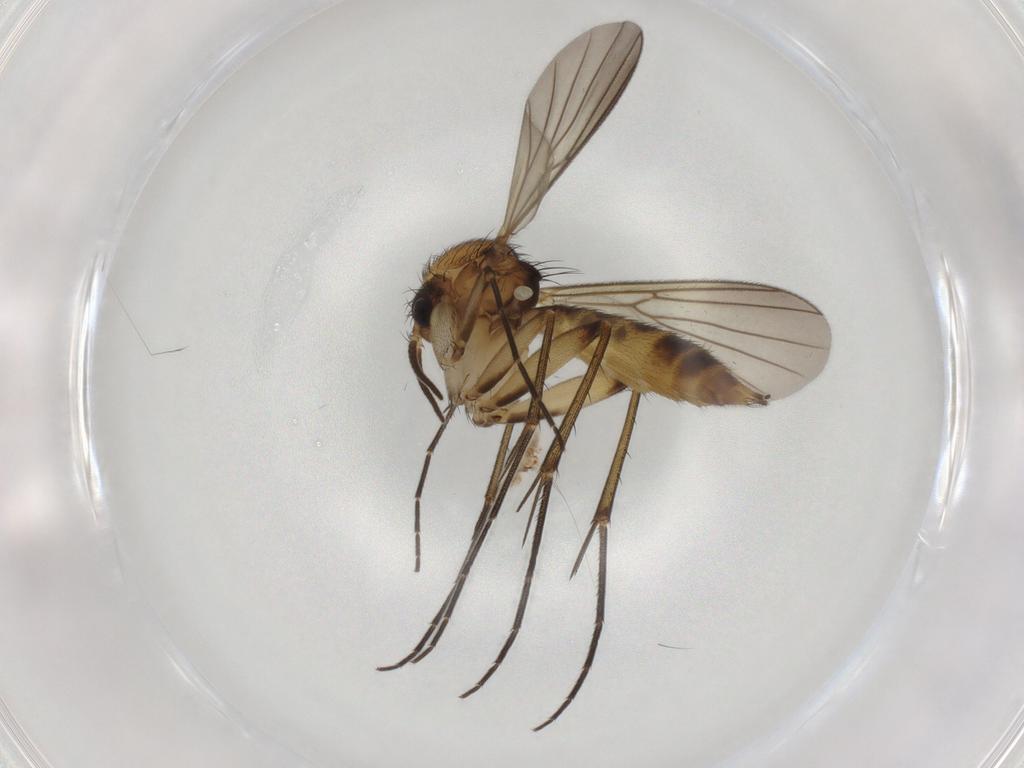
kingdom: Animalia
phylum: Arthropoda
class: Insecta
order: Diptera
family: Mycetophilidae
